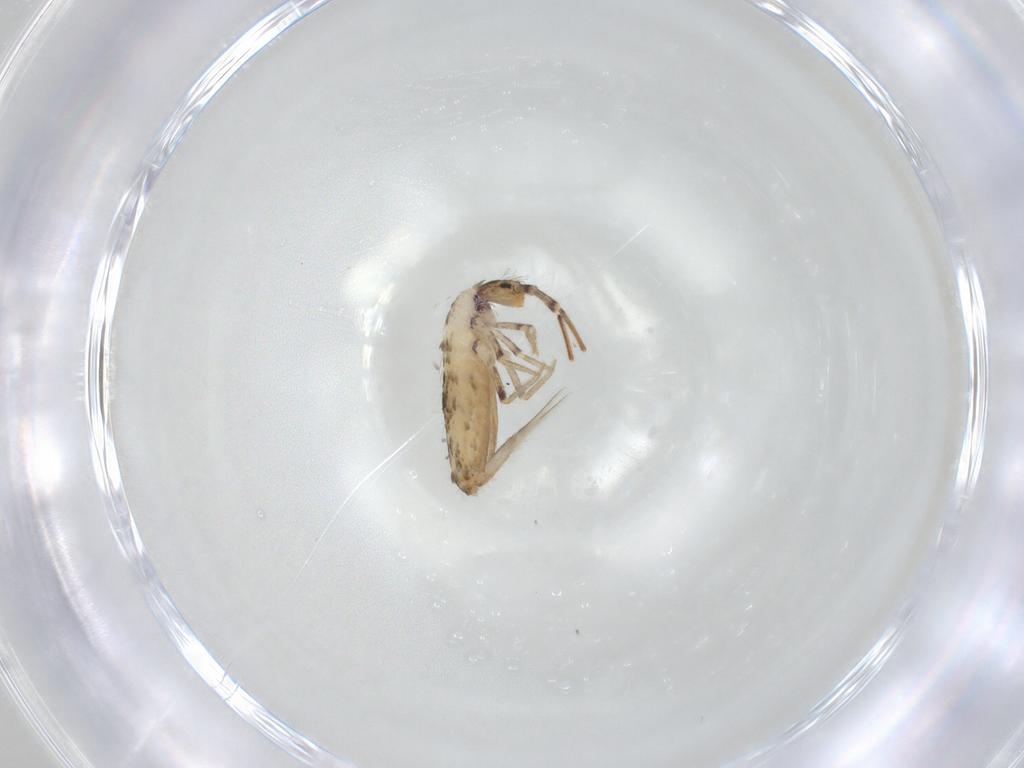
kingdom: Animalia
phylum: Arthropoda
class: Collembola
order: Entomobryomorpha
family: Entomobryidae
